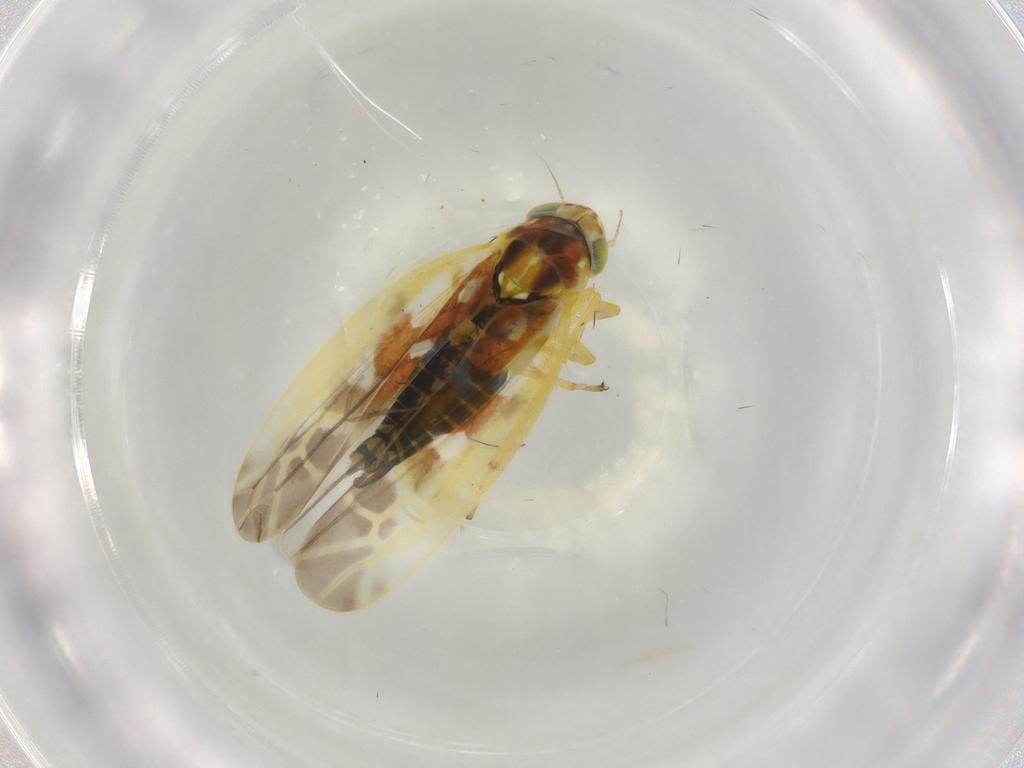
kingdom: Animalia
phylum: Arthropoda
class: Insecta
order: Hemiptera
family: Cicadellidae
